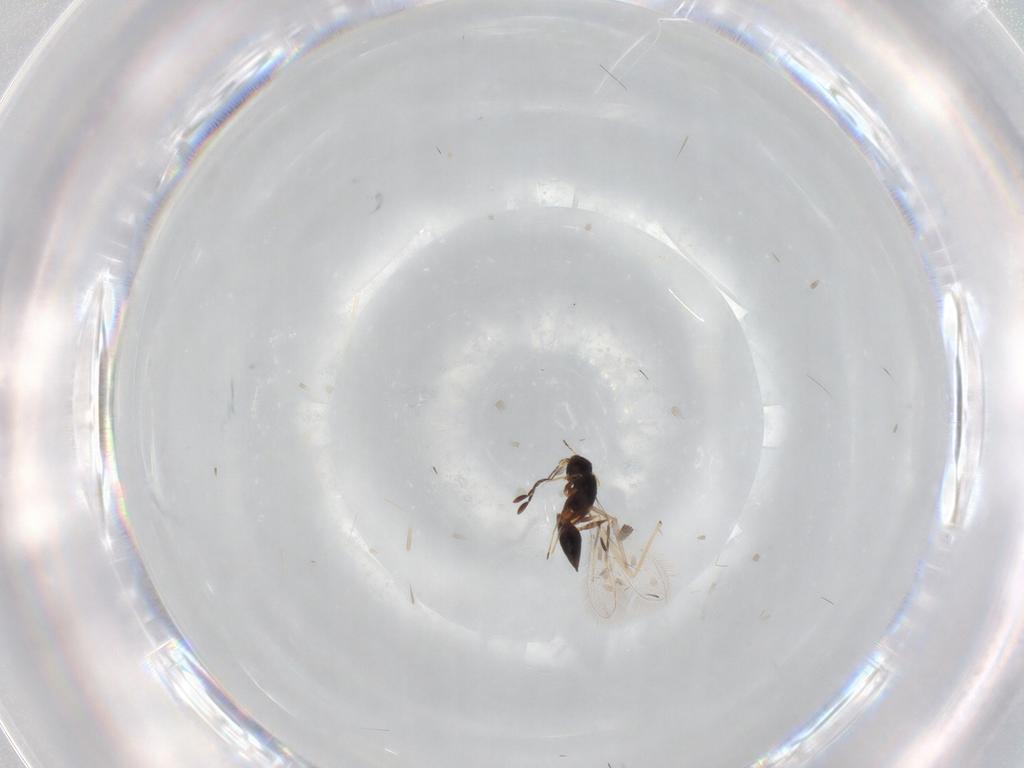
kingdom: Animalia
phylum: Arthropoda
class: Insecta
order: Hymenoptera
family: Mymaridae
